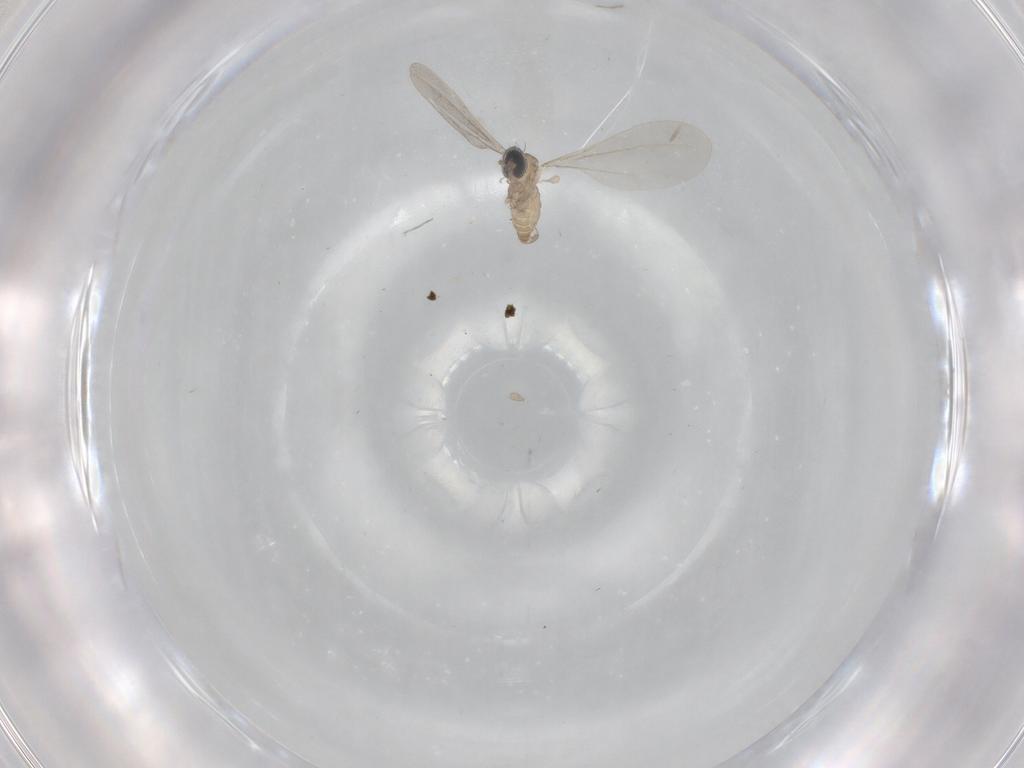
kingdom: Animalia
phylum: Arthropoda
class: Insecta
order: Diptera
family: Cecidomyiidae
